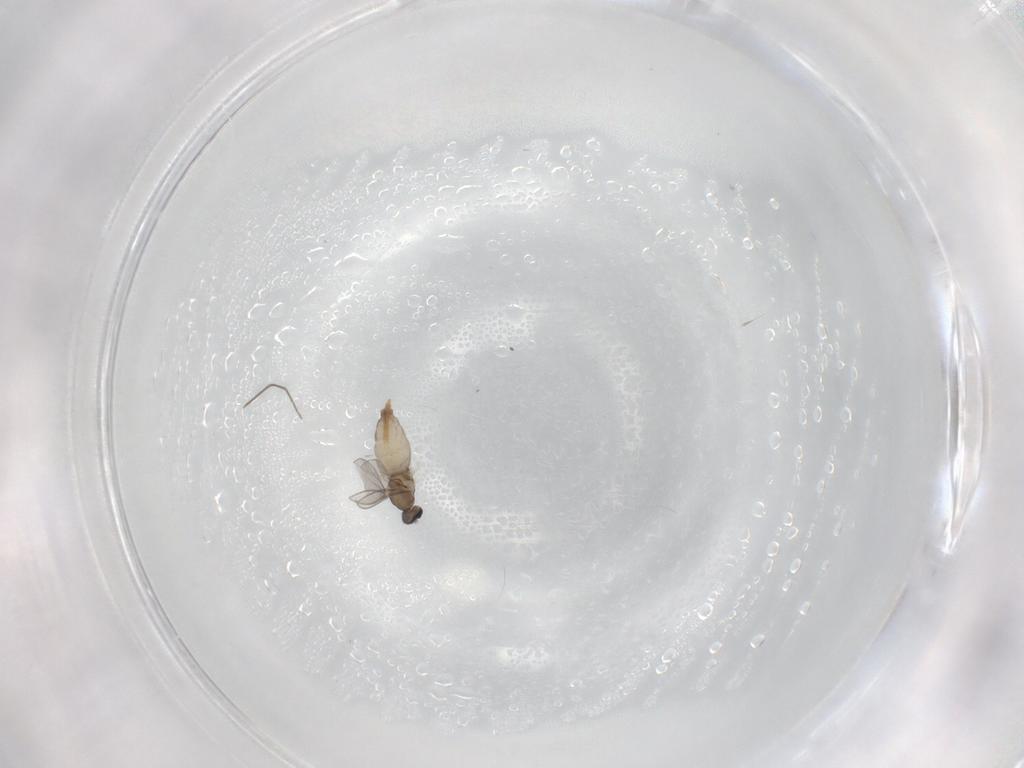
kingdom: Animalia
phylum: Arthropoda
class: Insecta
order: Diptera
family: Cecidomyiidae
